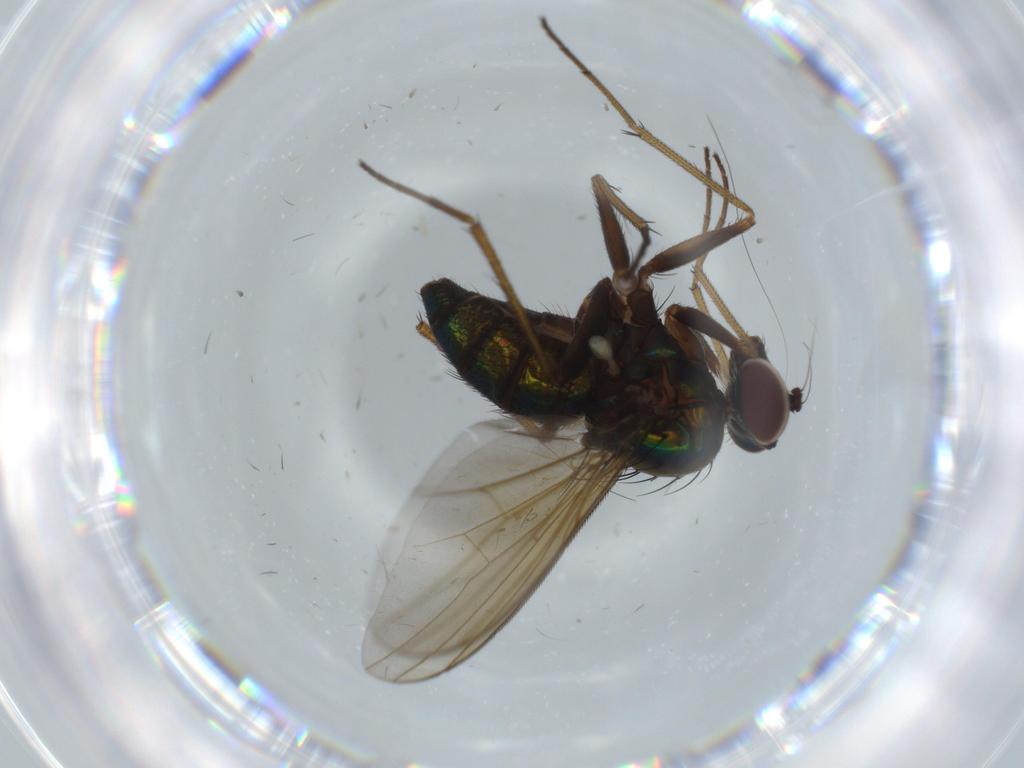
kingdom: Animalia
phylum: Arthropoda
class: Insecta
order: Diptera
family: Dolichopodidae
